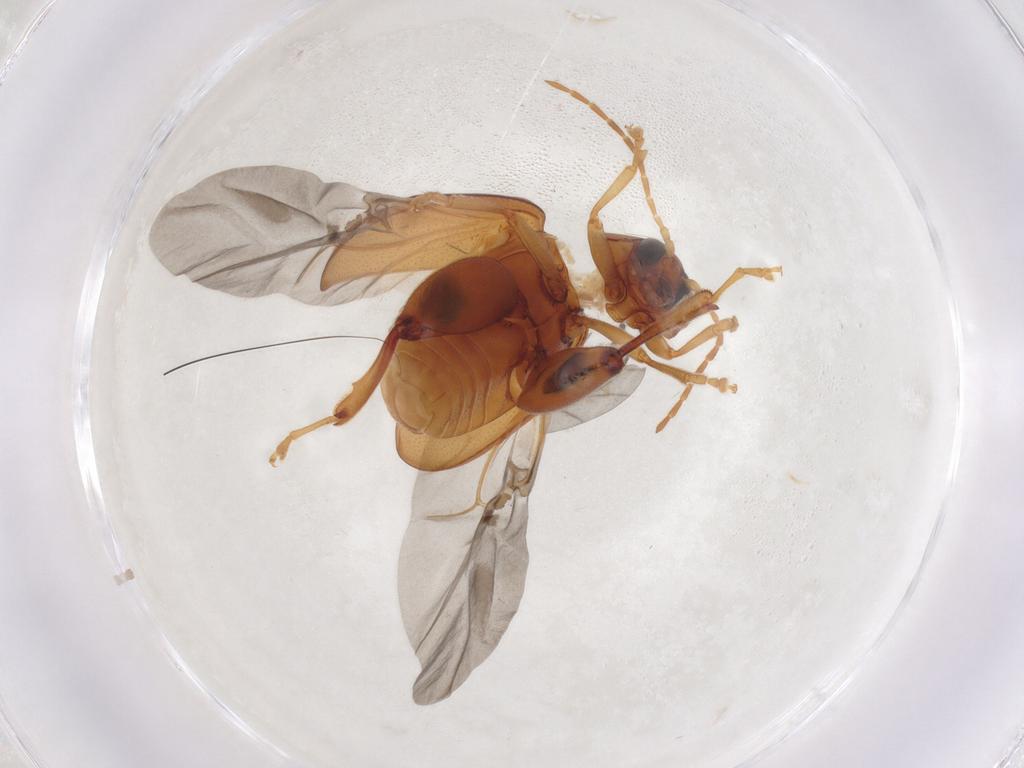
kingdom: Animalia
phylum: Arthropoda
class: Insecta
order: Coleoptera
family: Chrysomelidae
